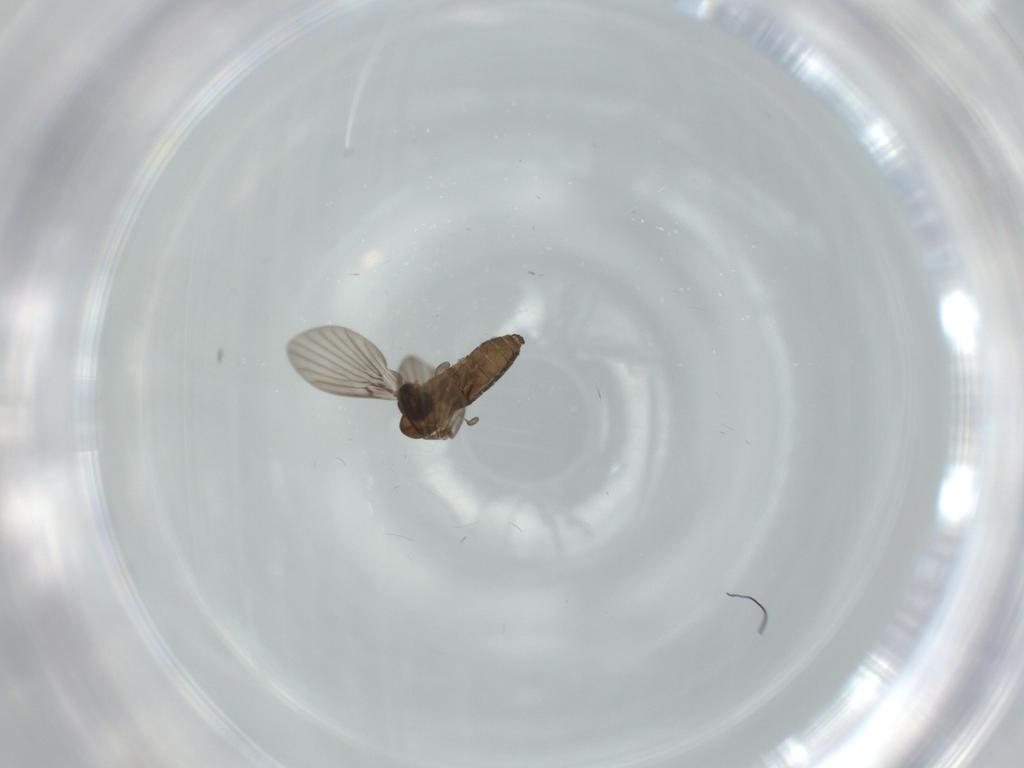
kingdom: Animalia
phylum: Arthropoda
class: Insecta
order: Diptera
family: Psychodidae
